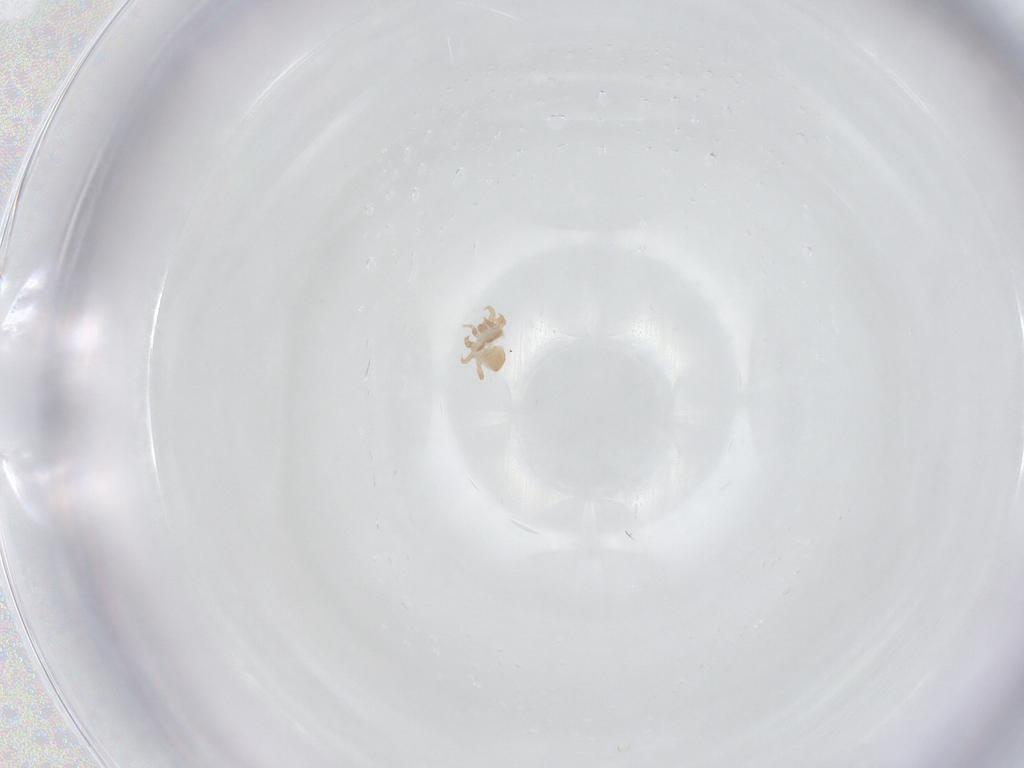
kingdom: Animalia
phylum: Arthropoda
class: Arachnida
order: Mesostigmata
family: Halolaelapidae
